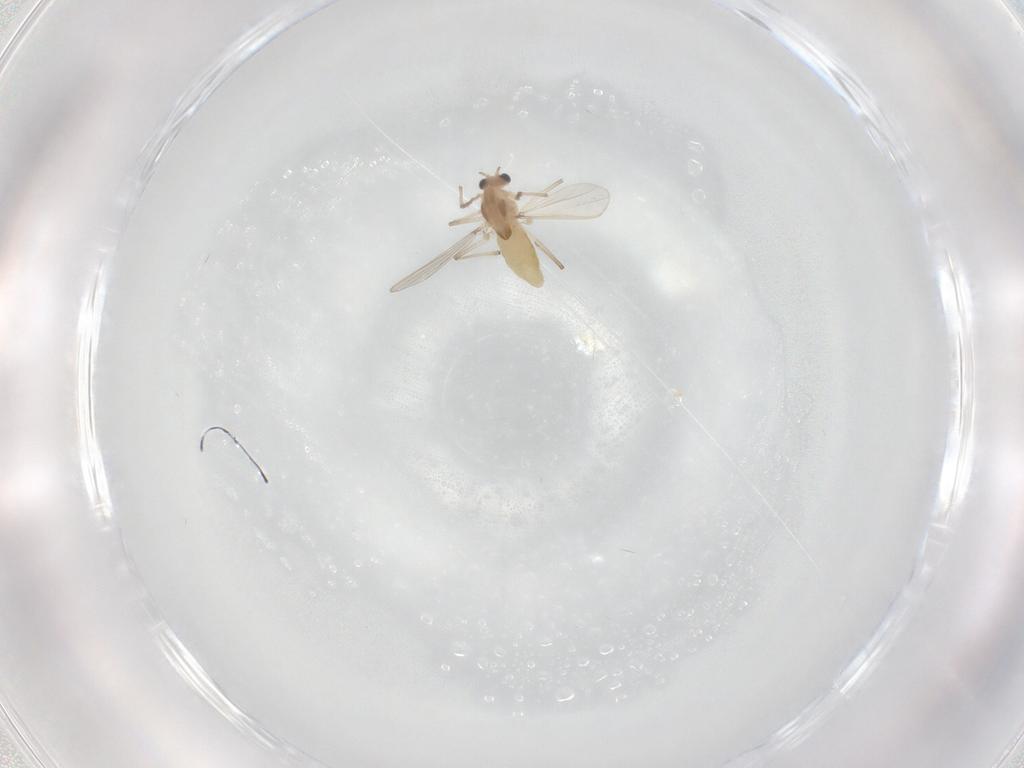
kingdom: Animalia
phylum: Arthropoda
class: Insecta
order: Diptera
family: Chironomidae
